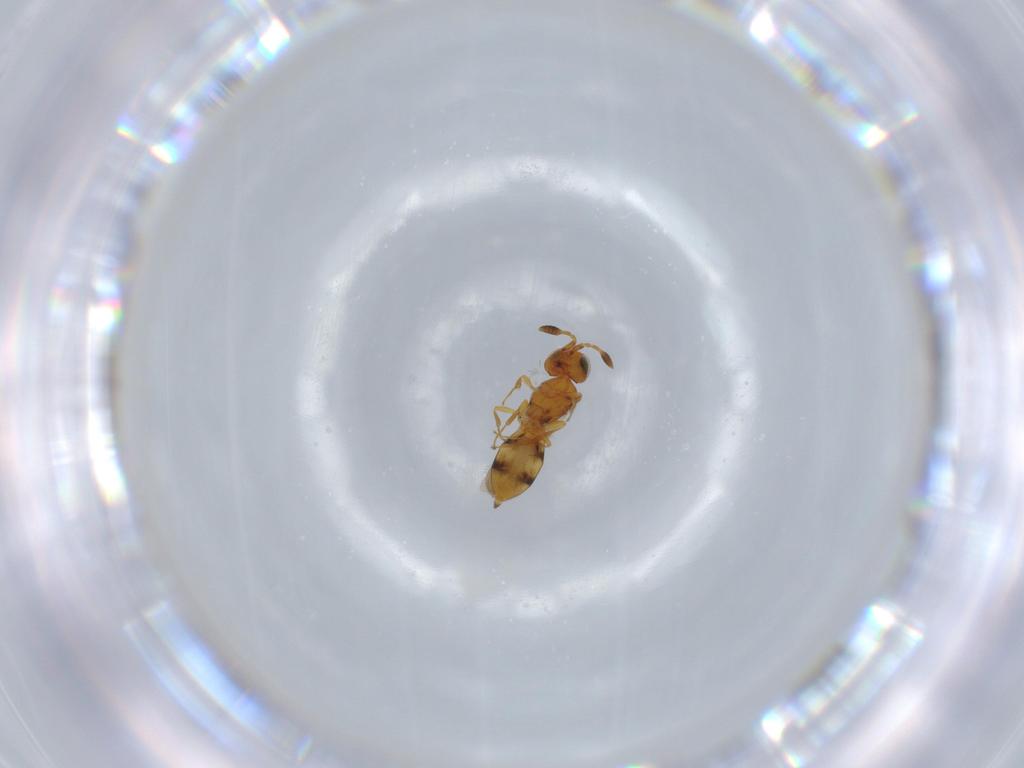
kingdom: Animalia
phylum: Arthropoda
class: Insecta
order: Hymenoptera
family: Scelionidae
